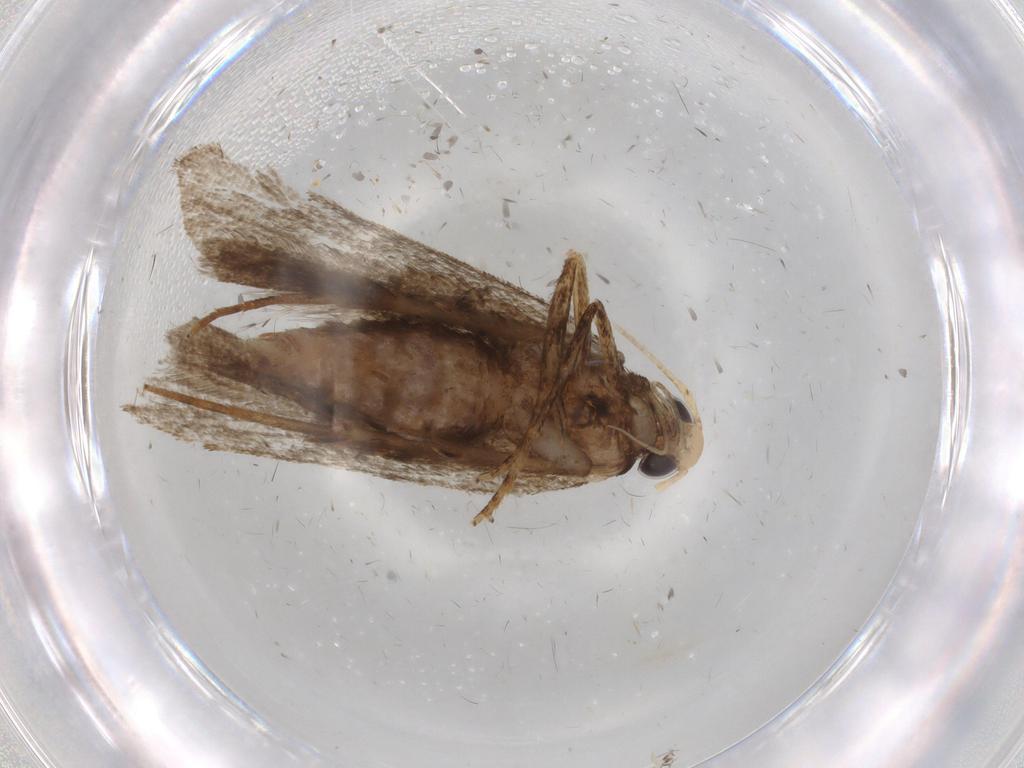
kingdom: Animalia
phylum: Arthropoda
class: Insecta
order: Lepidoptera
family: Gelechiidae
